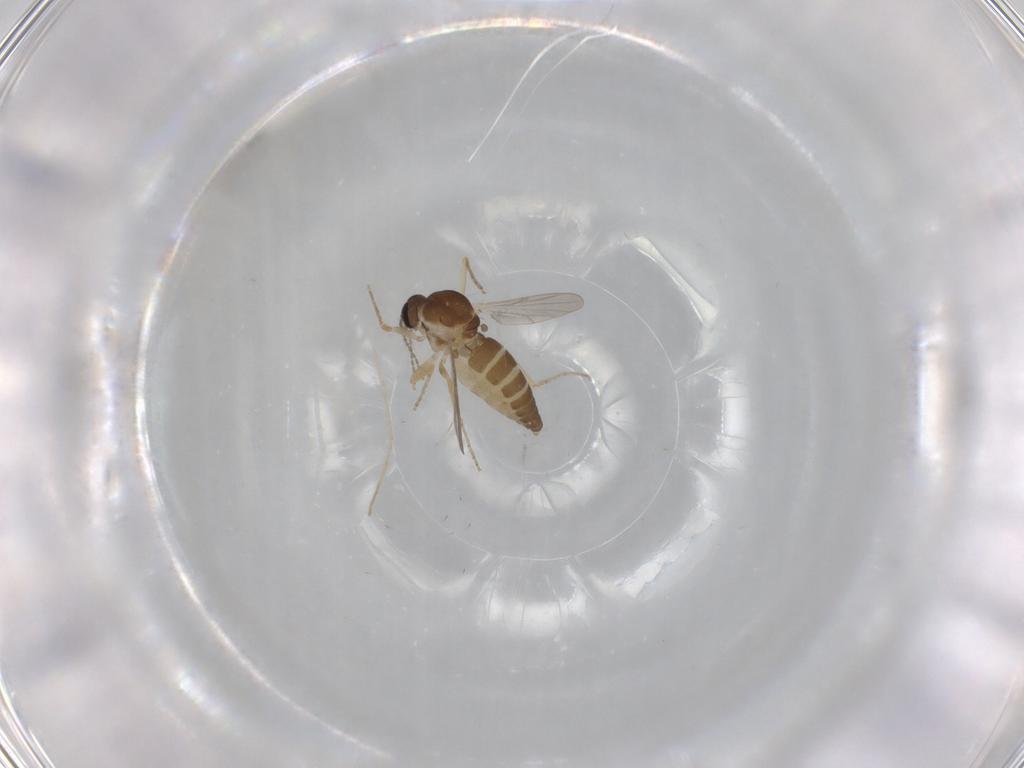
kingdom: Animalia
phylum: Arthropoda
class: Insecta
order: Diptera
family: Ceratopogonidae
